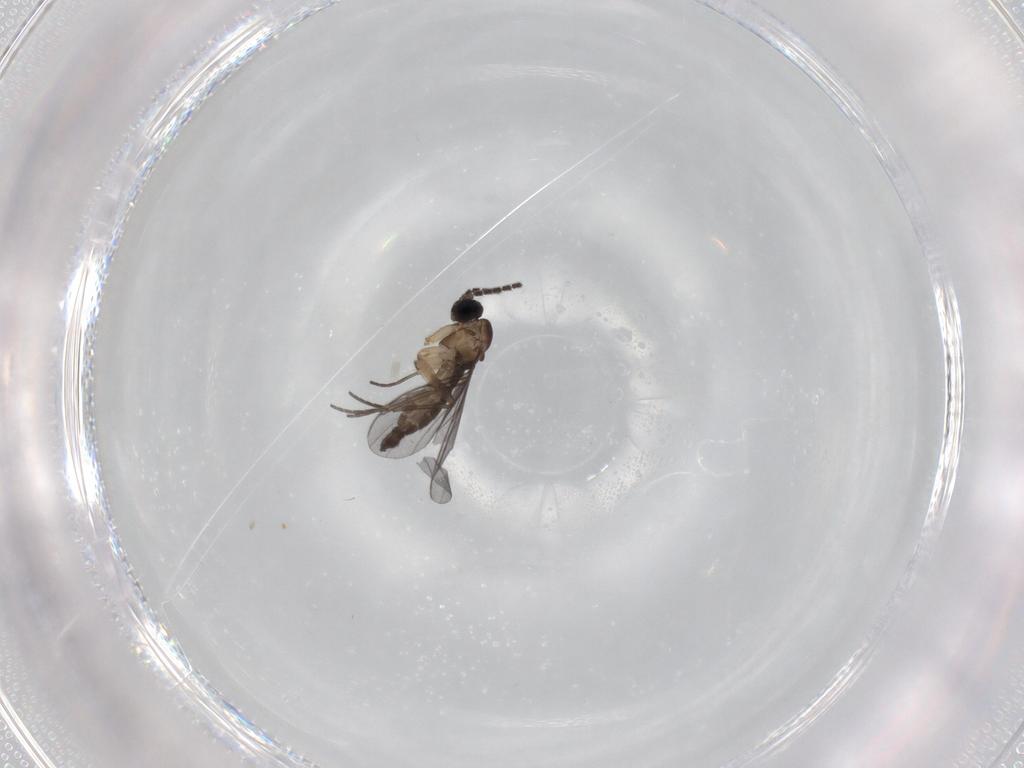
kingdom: Animalia
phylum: Arthropoda
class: Insecta
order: Diptera
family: Sciaridae
